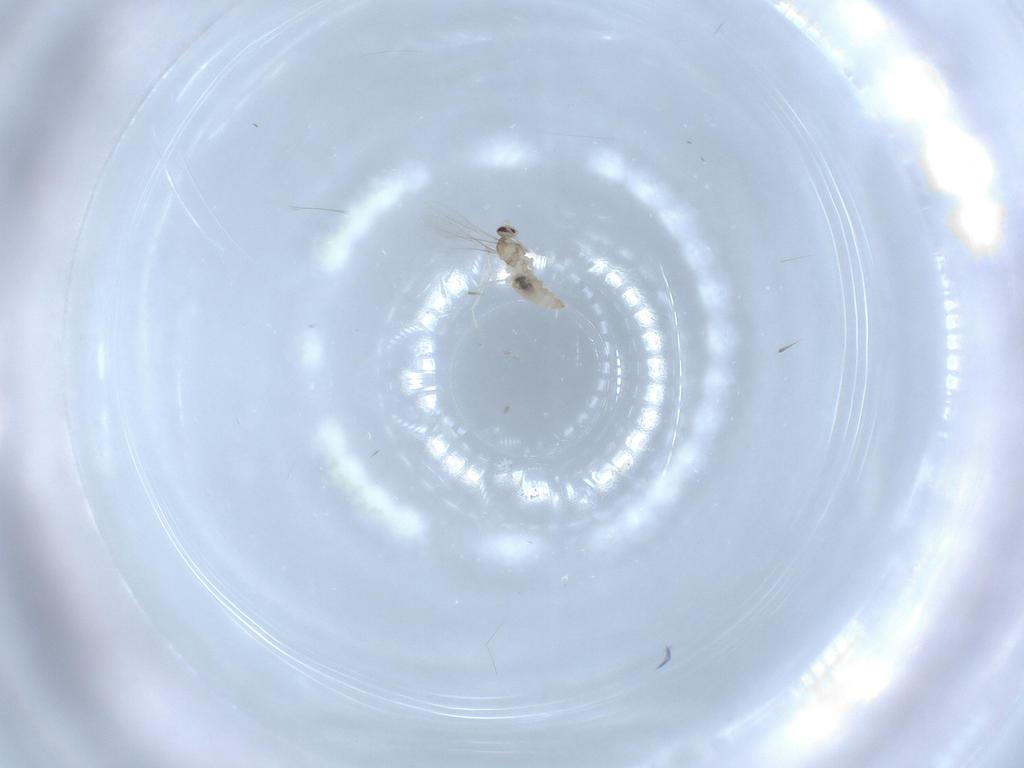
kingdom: Animalia
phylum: Arthropoda
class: Insecta
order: Diptera
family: Cecidomyiidae
